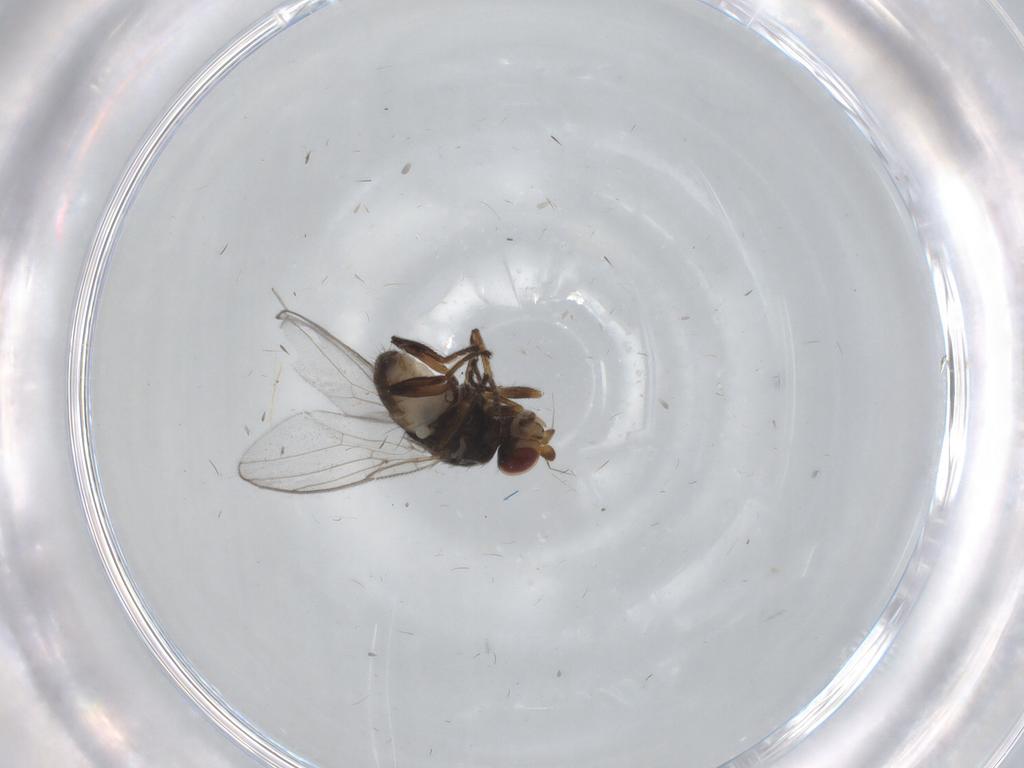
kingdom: Animalia
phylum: Arthropoda
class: Insecta
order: Diptera
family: Chloropidae
